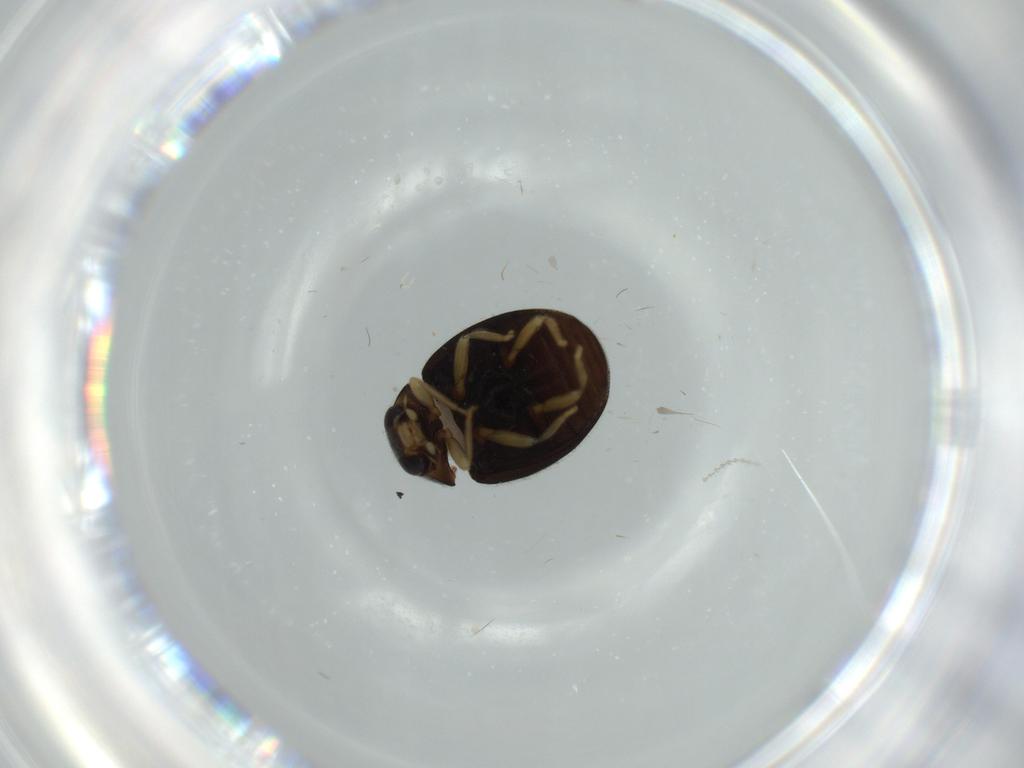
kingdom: Animalia
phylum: Arthropoda
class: Insecta
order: Coleoptera
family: Coccinellidae
